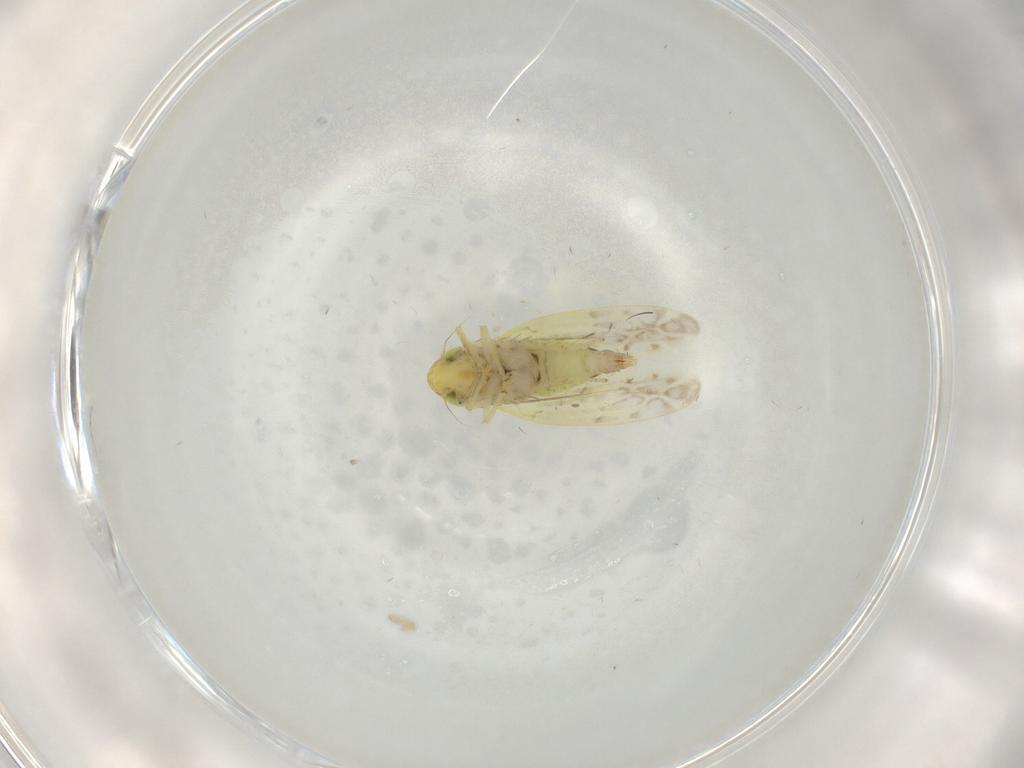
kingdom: Animalia
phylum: Arthropoda
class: Insecta
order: Hemiptera
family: Cicadellidae
